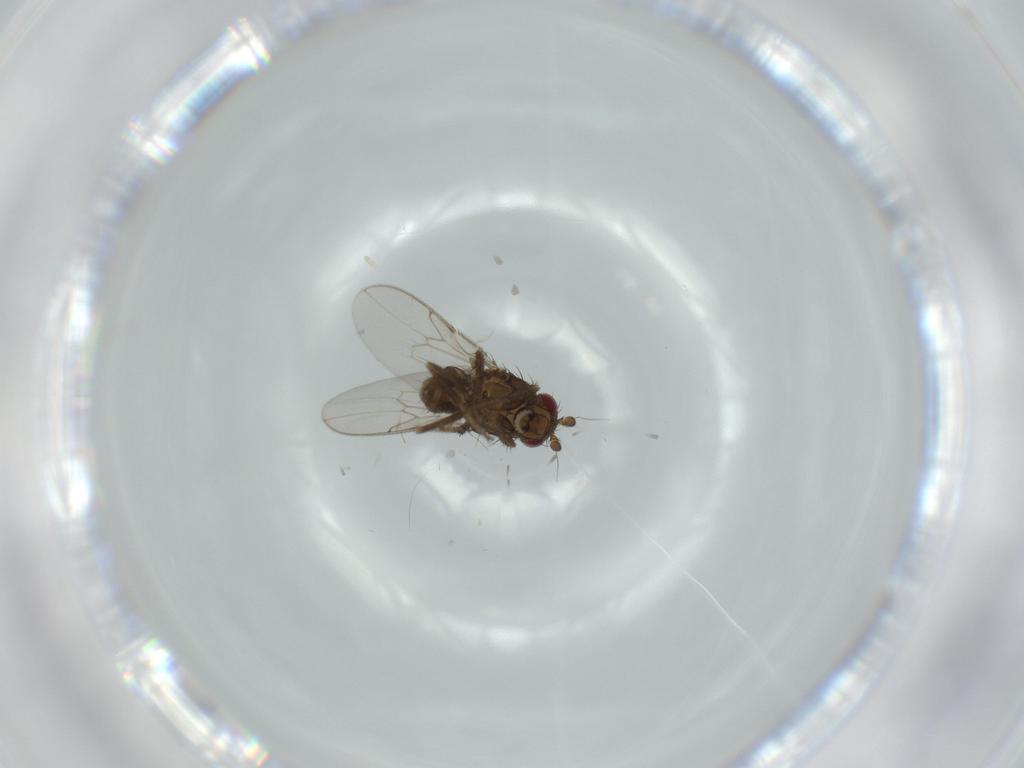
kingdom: Animalia
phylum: Arthropoda
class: Insecta
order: Diptera
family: Sphaeroceridae
